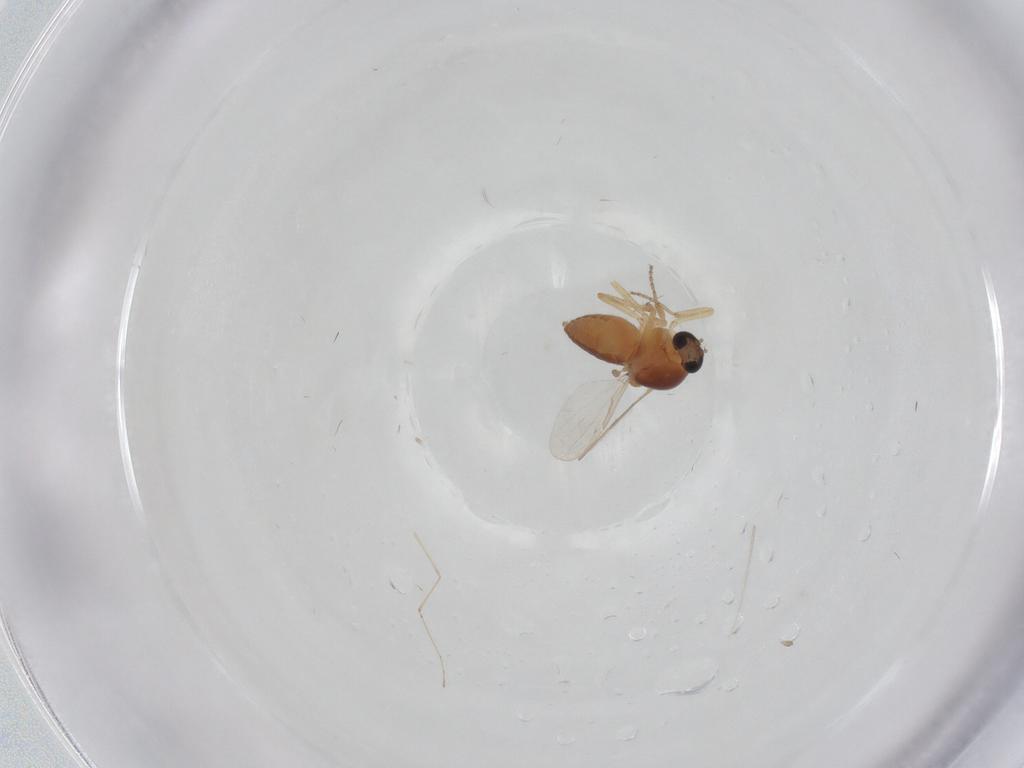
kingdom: Animalia
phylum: Arthropoda
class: Insecta
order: Diptera
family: Ceratopogonidae
